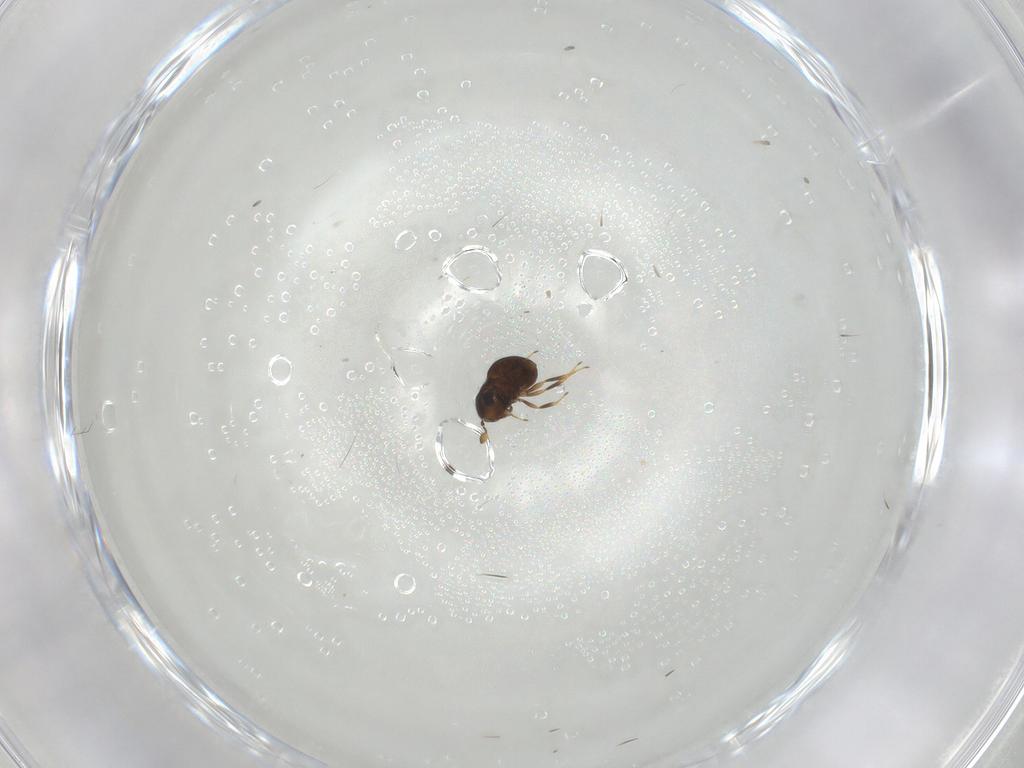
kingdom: Animalia
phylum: Arthropoda
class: Insecta
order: Hymenoptera
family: Scelionidae
